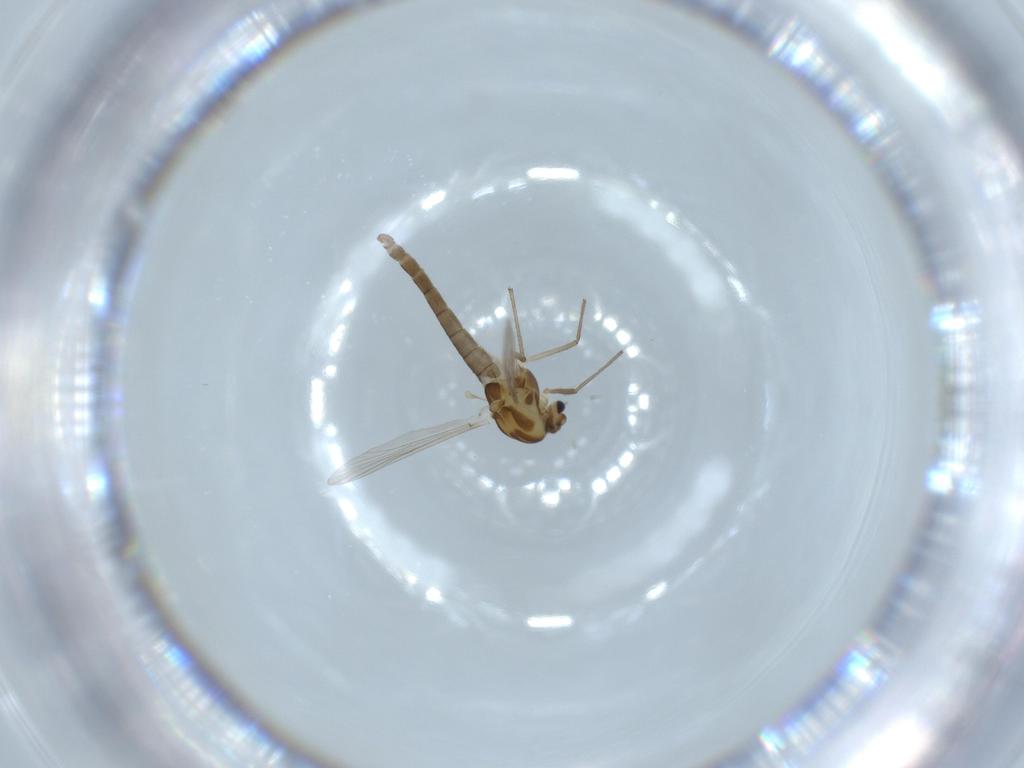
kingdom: Animalia
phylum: Arthropoda
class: Insecta
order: Diptera
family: Chironomidae
